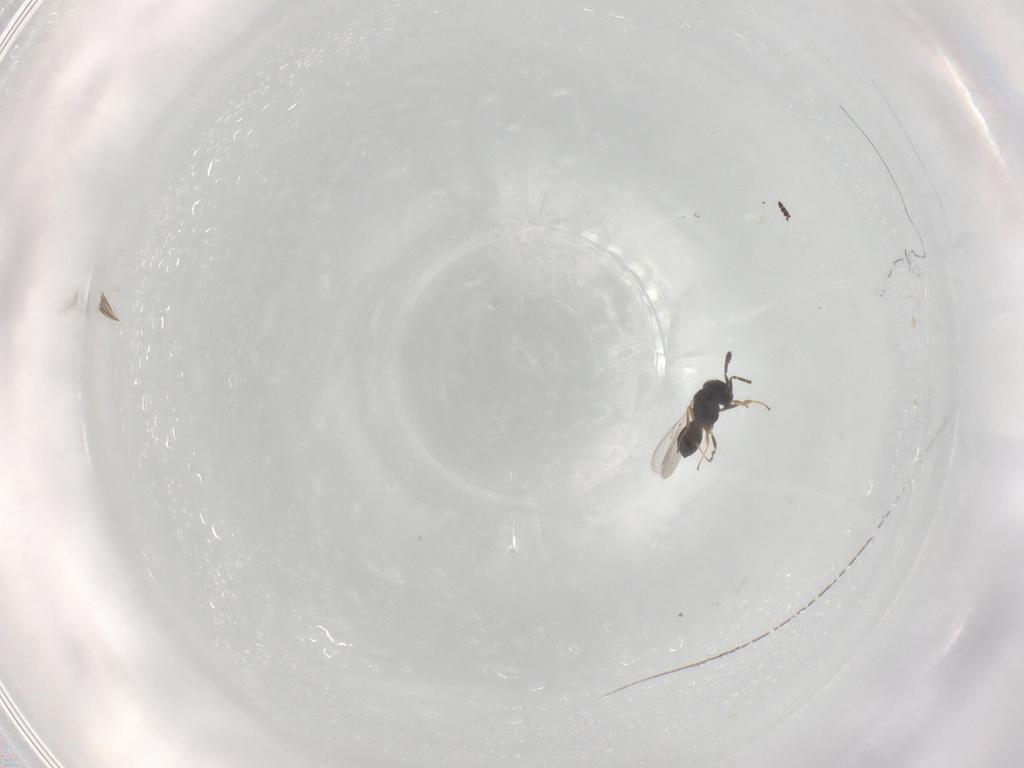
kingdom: Animalia
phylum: Arthropoda
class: Insecta
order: Hymenoptera
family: Scelionidae
